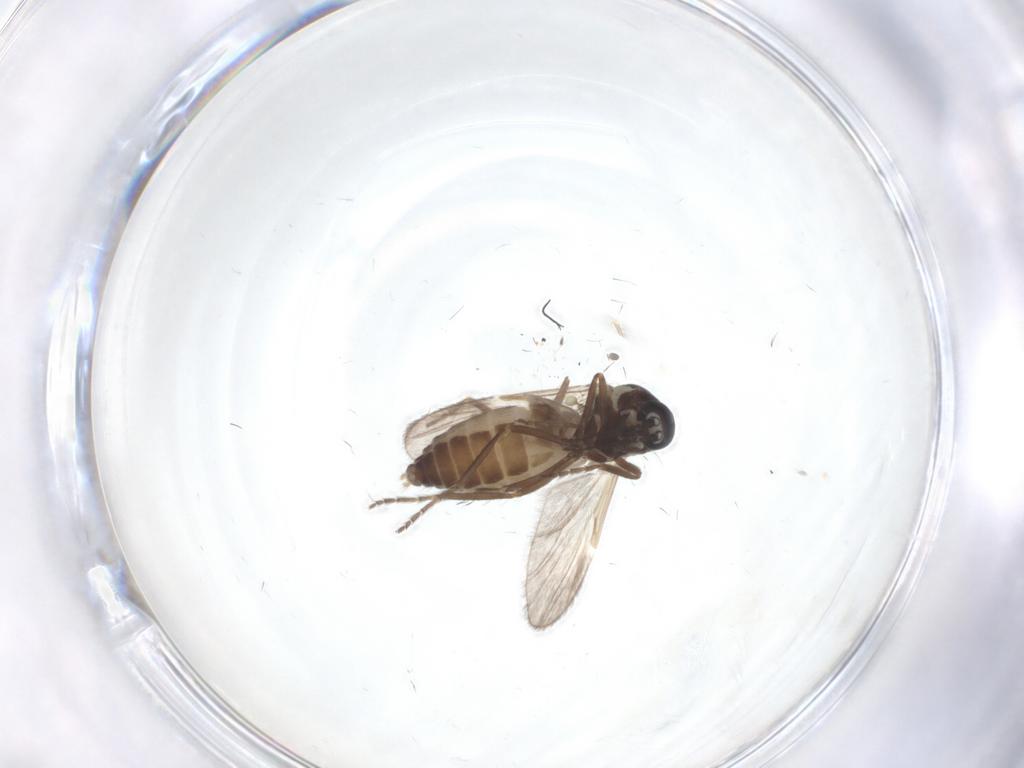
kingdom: Animalia
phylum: Arthropoda
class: Insecta
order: Diptera
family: Ceratopogonidae
